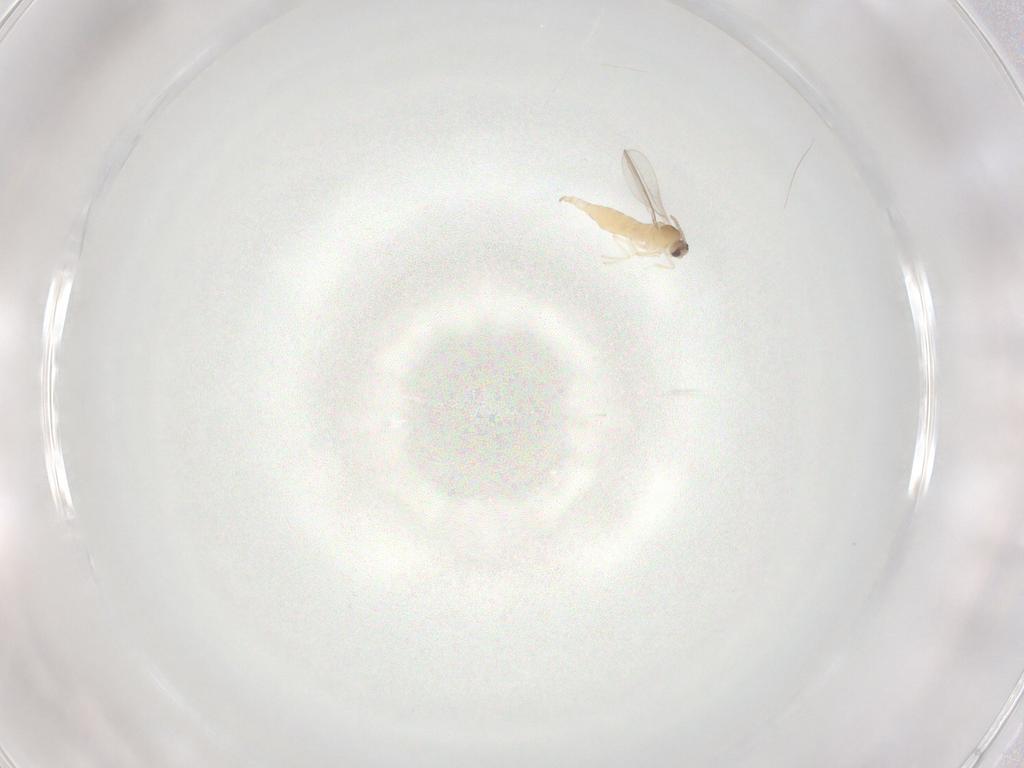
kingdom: Animalia
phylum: Arthropoda
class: Insecta
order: Diptera
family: Cecidomyiidae
